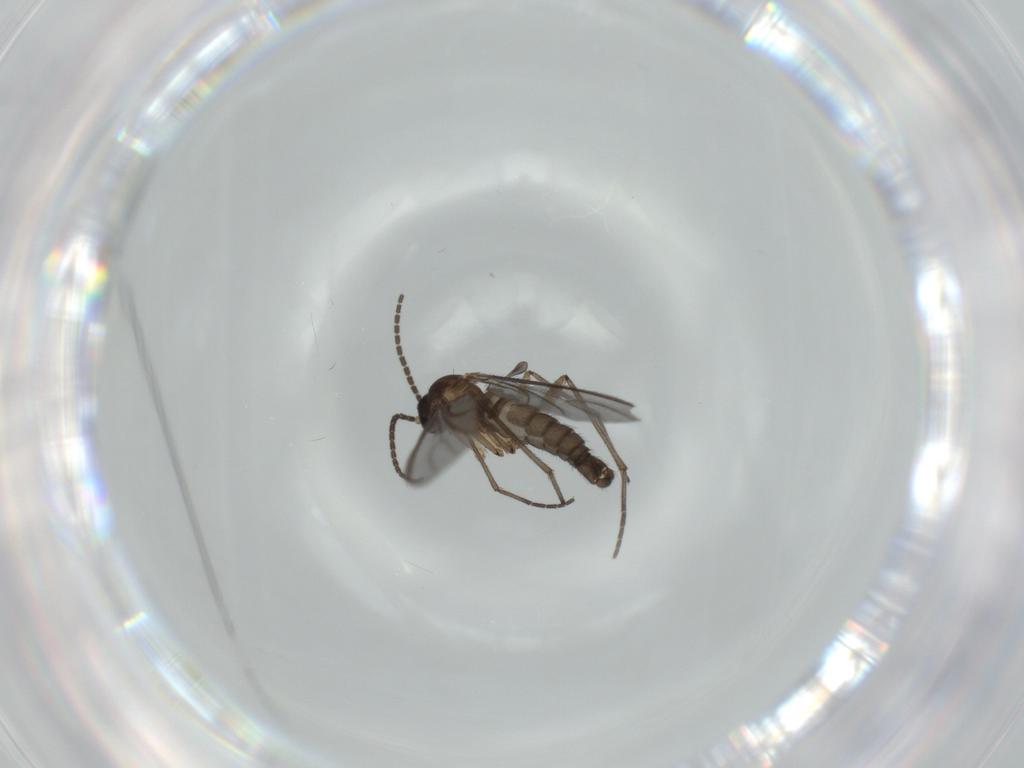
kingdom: Animalia
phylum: Arthropoda
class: Insecta
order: Diptera
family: Sciaridae
